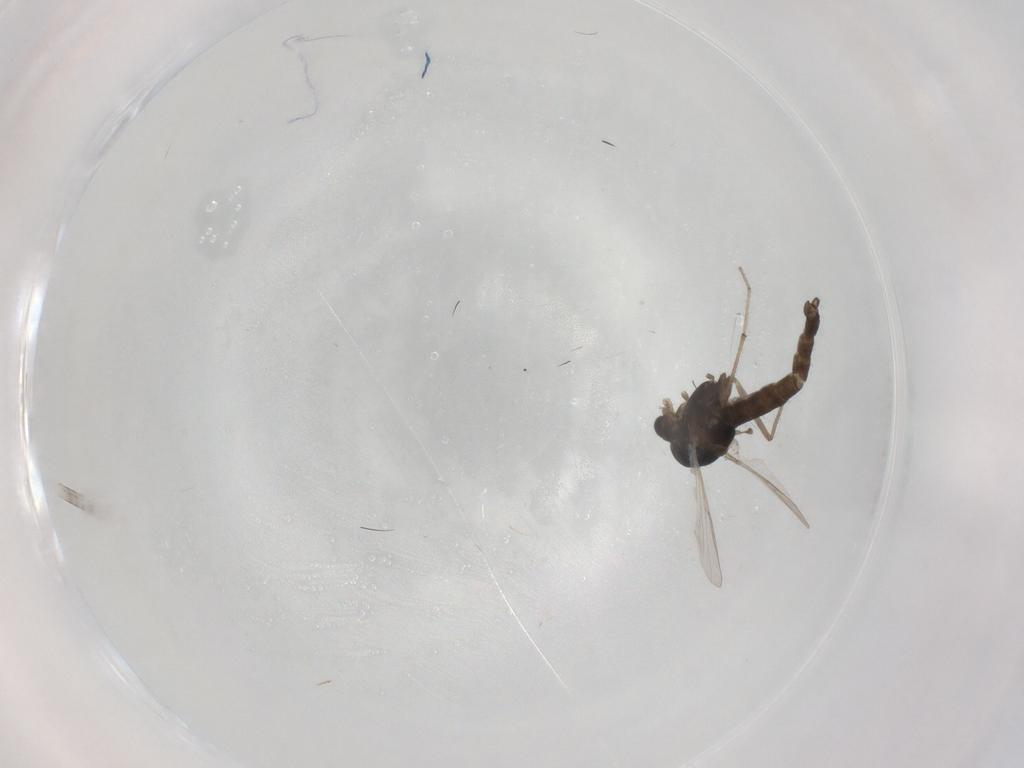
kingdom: Animalia
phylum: Arthropoda
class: Insecta
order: Diptera
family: Chironomidae
